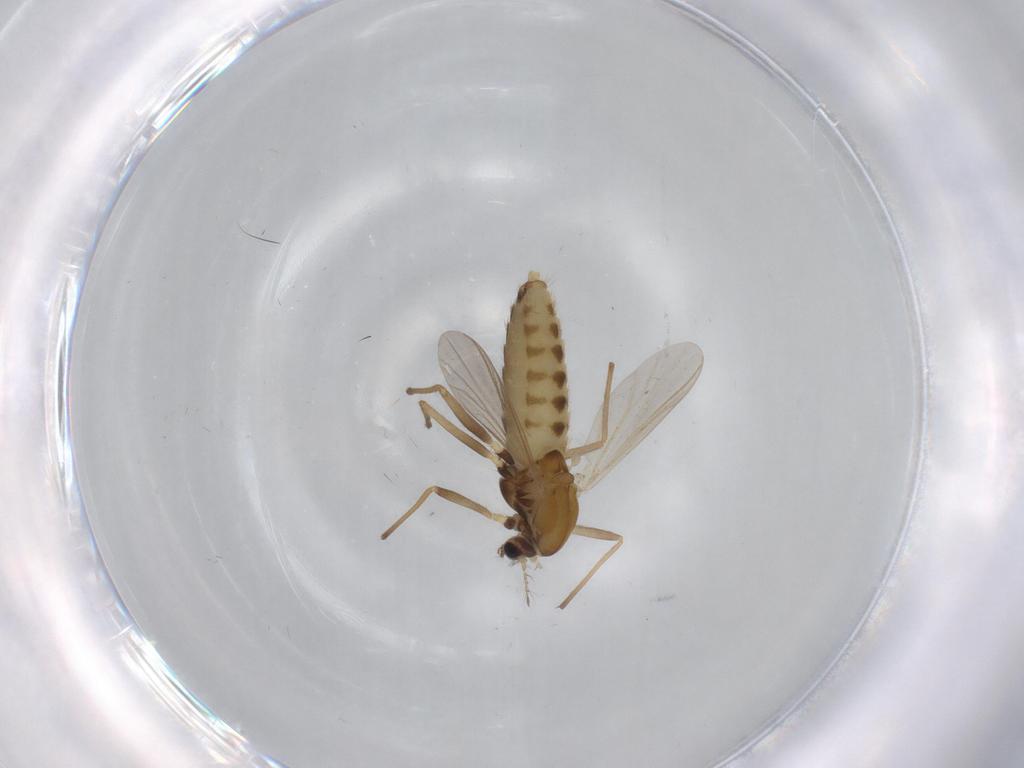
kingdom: Animalia
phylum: Arthropoda
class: Insecta
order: Diptera
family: Chironomidae
